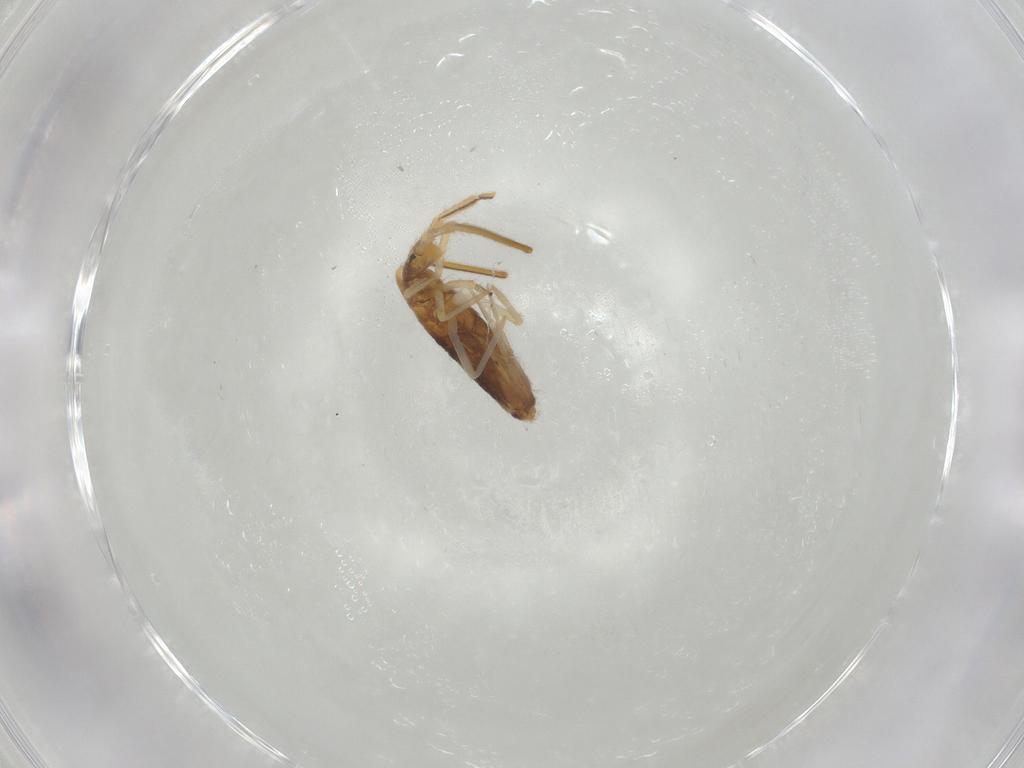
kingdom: Animalia
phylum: Arthropoda
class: Collembola
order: Entomobryomorpha
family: Entomobryidae
